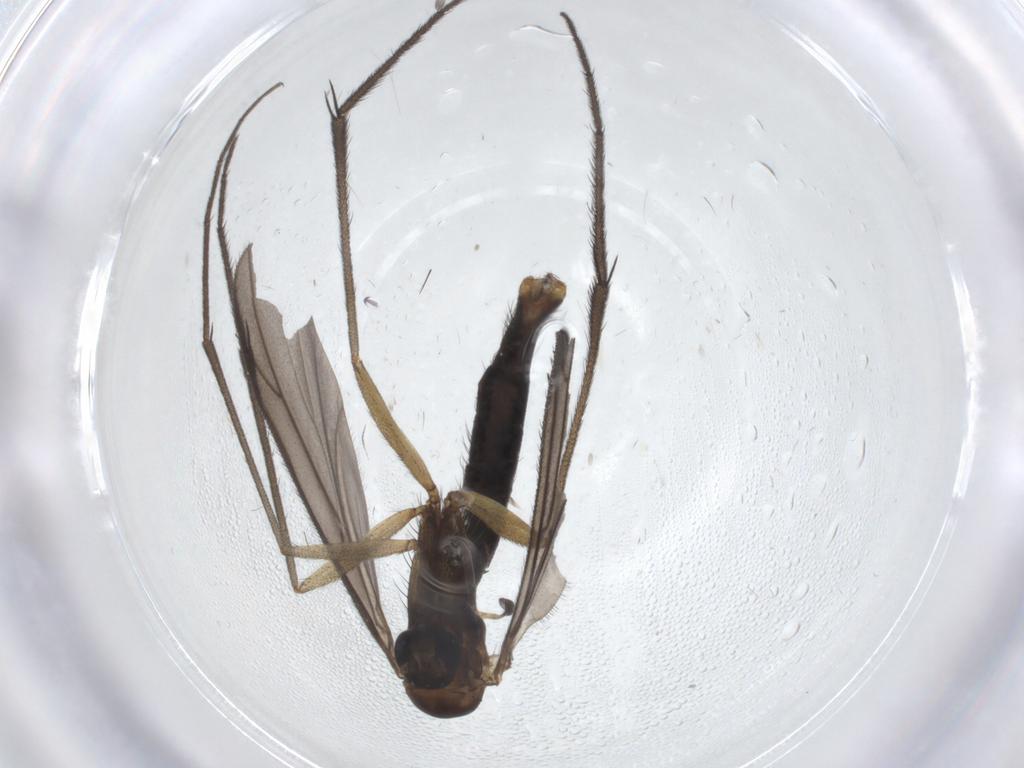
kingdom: Animalia
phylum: Arthropoda
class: Insecta
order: Diptera
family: Ditomyiidae
